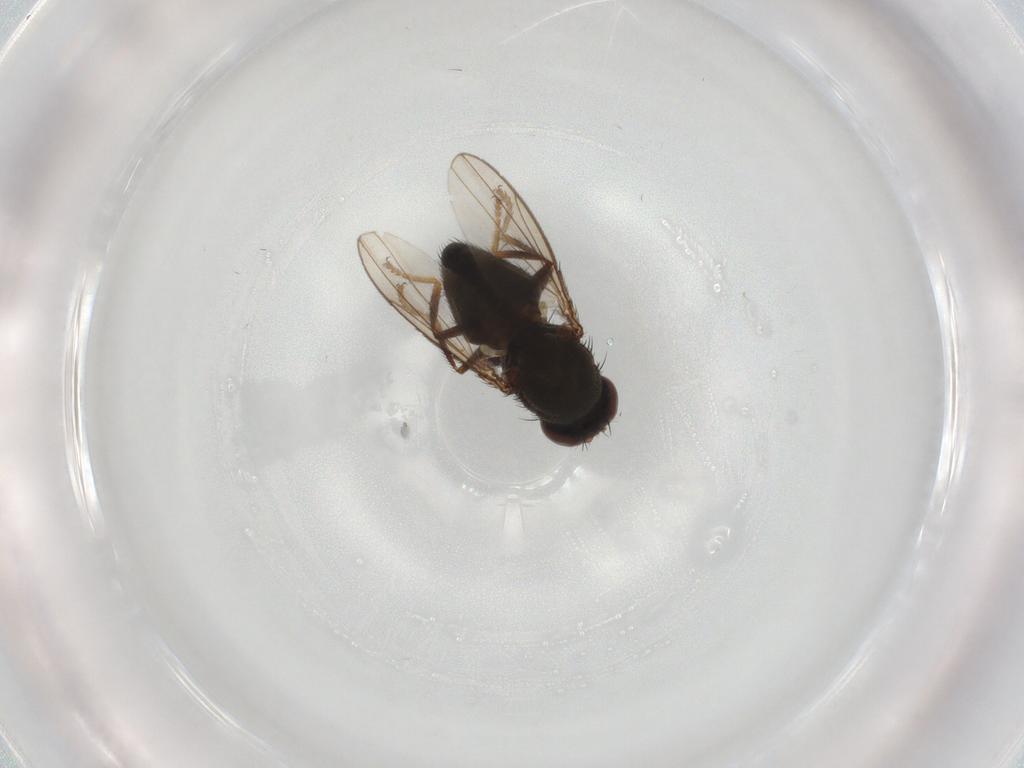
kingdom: Animalia
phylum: Arthropoda
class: Insecta
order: Diptera
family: Ephydridae
